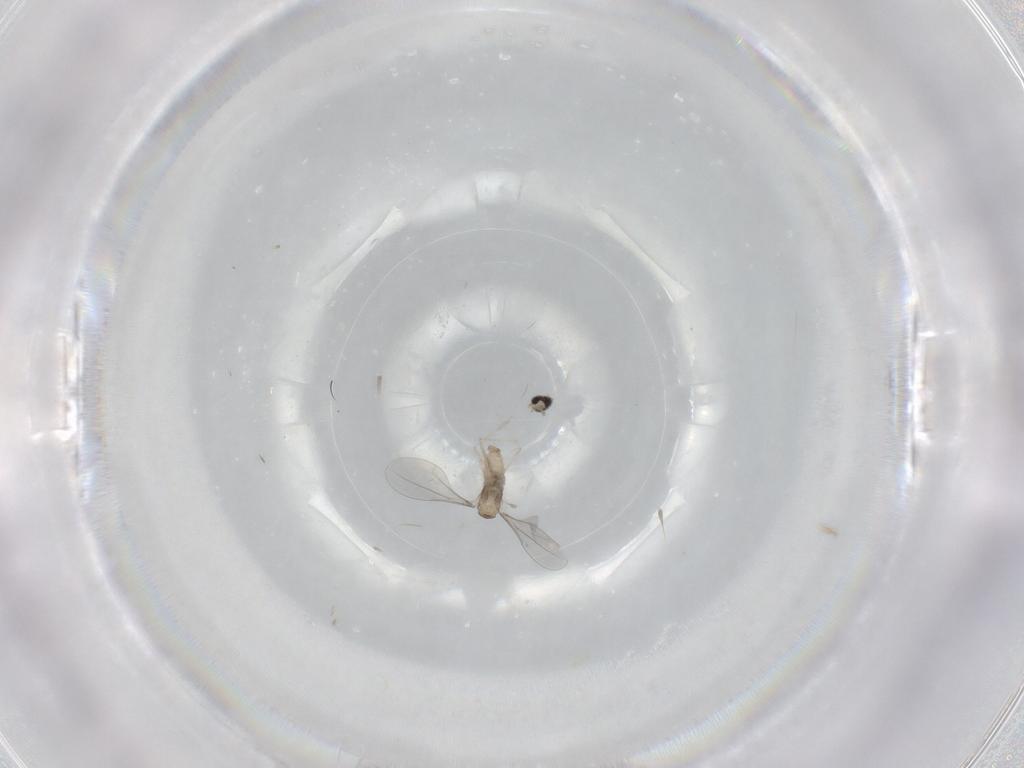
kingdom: Animalia
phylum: Arthropoda
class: Insecta
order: Diptera
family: Sciaridae
